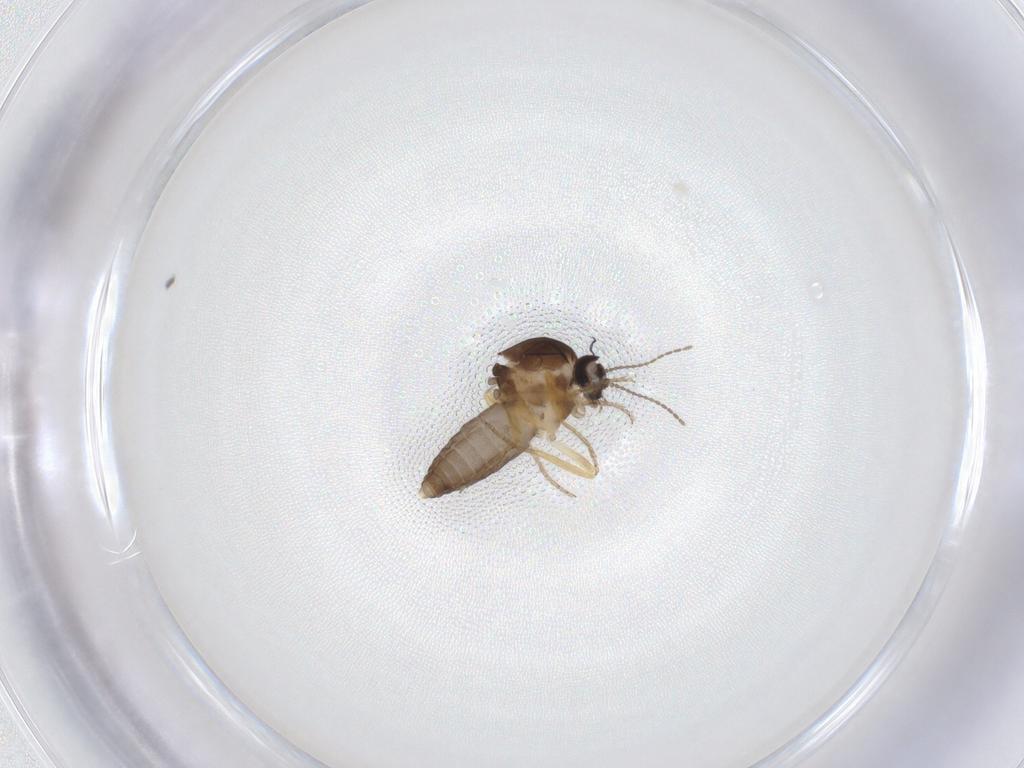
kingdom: Animalia
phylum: Arthropoda
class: Insecta
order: Diptera
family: Ceratopogonidae
